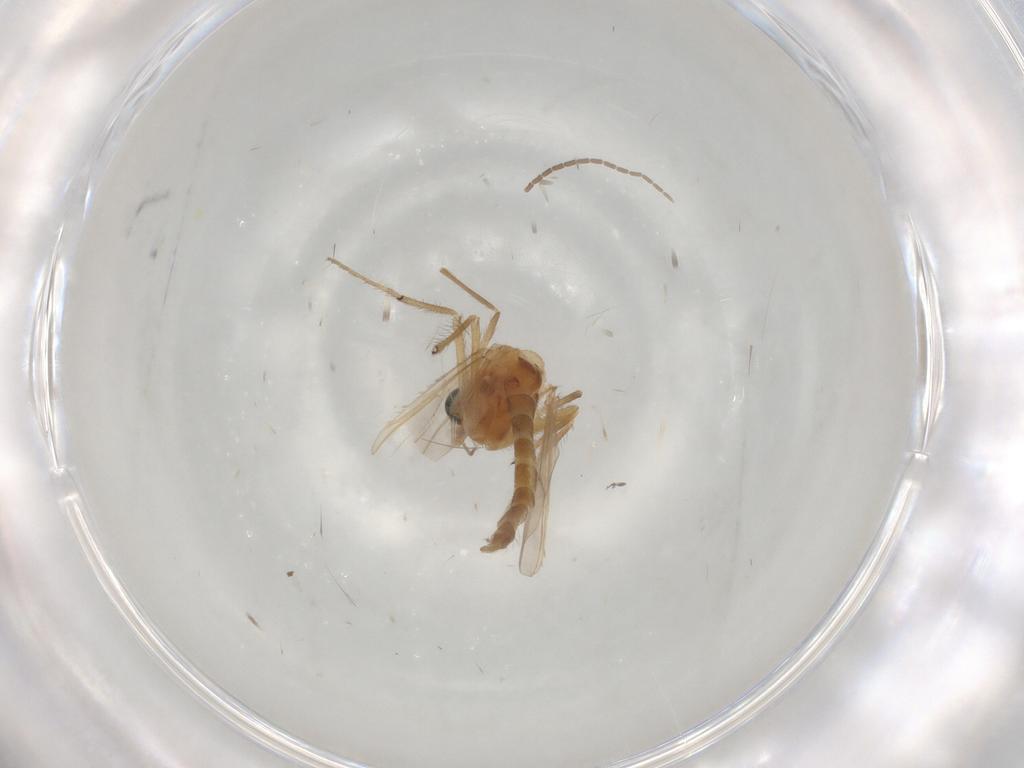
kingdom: Animalia
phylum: Arthropoda
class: Insecta
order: Diptera
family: Chironomidae
